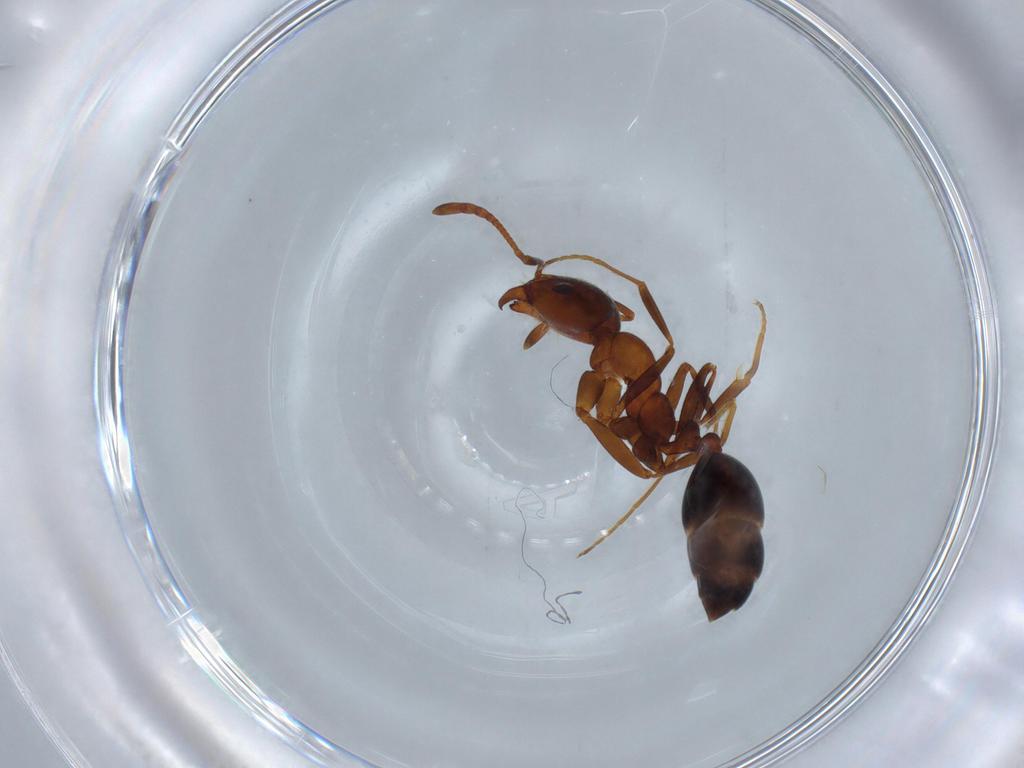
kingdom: Animalia
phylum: Arthropoda
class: Insecta
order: Hymenoptera
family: Formicidae
